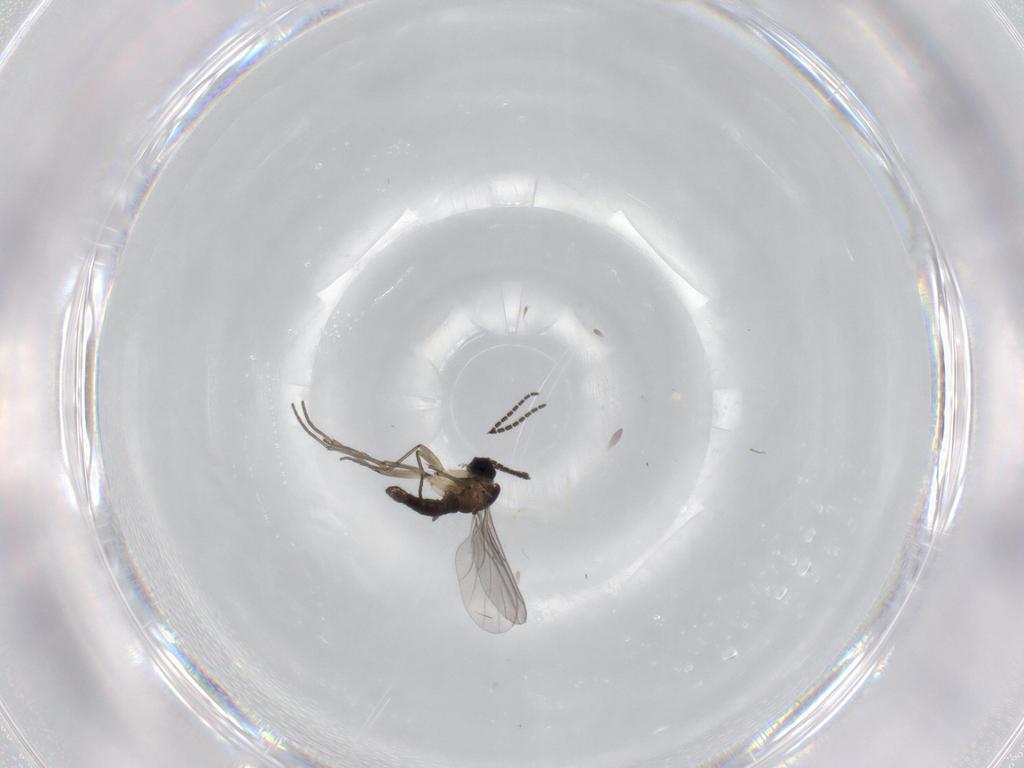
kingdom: Animalia
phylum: Arthropoda
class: Insecta
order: Diptera
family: Sciaridae
